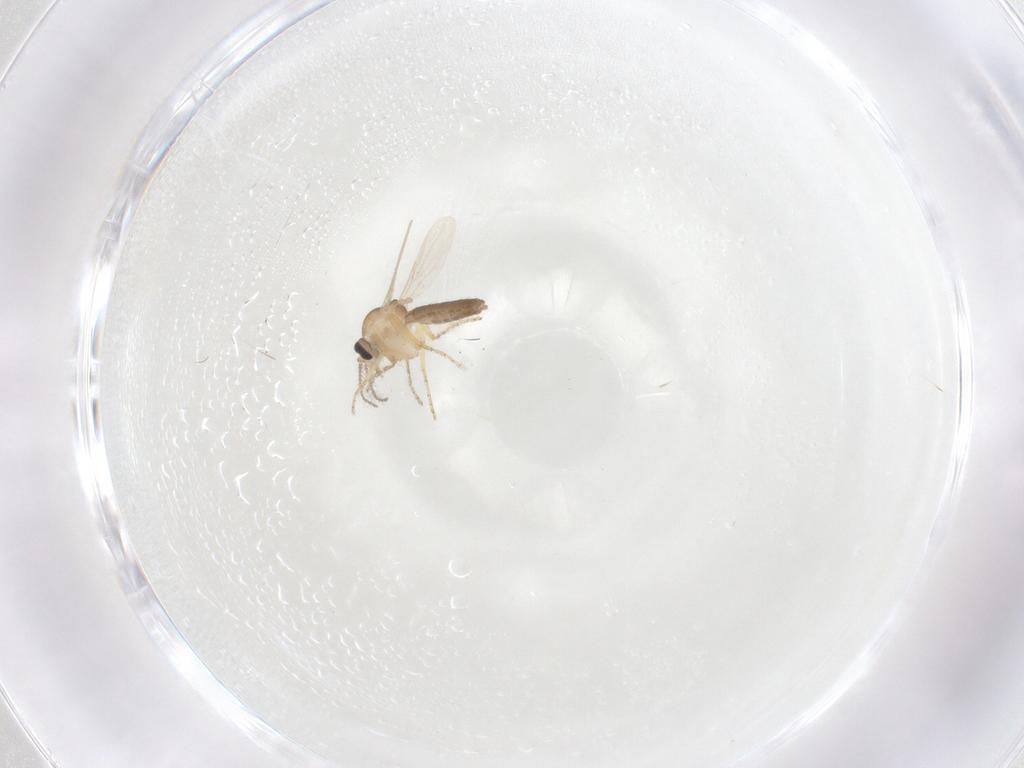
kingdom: Animalia
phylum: Arthropoda
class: Insecta
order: Diptera
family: Ceratopogonidae
